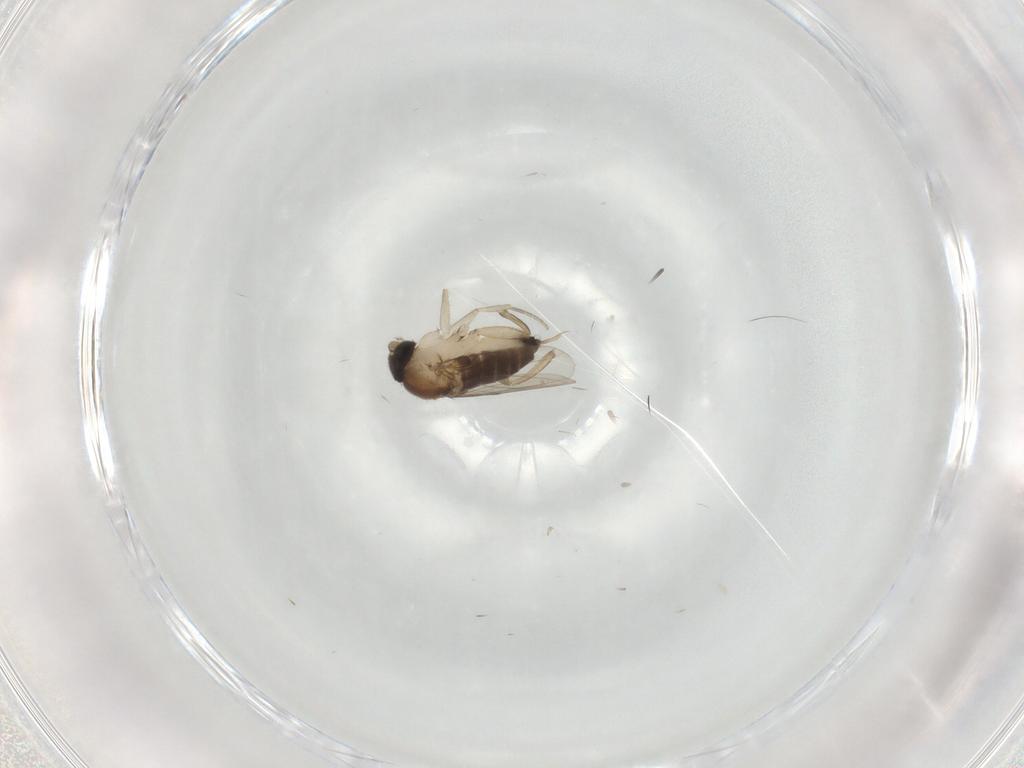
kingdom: Animalia
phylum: Arthropoda
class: Insecta
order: Diptera
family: Phoridae
